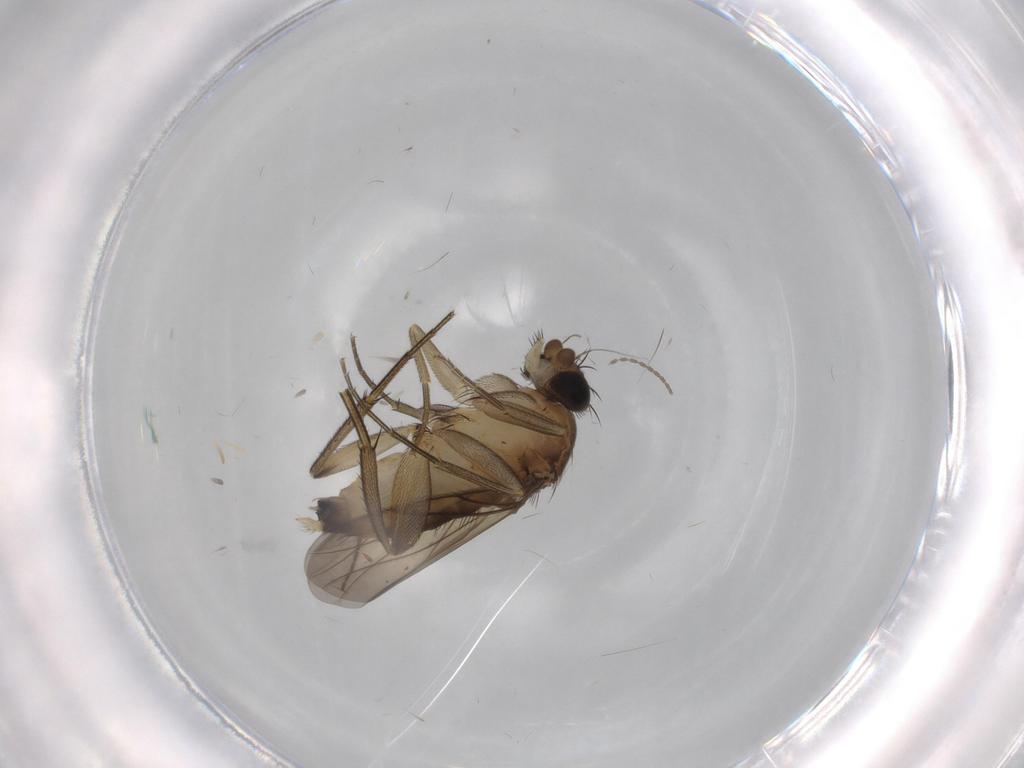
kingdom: Animalia
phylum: Arthropoda
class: Insecta
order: Diptera
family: Phoridae
